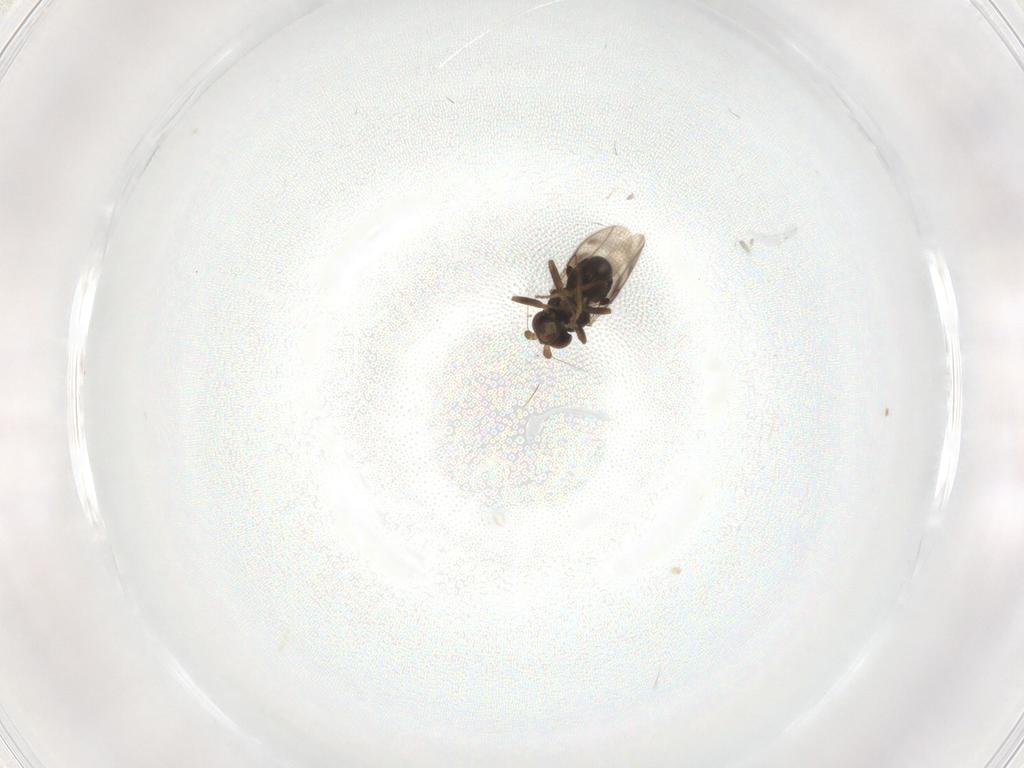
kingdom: Animalia
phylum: Arthropoda
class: Insecta
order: Diptera
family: Sphaeroceridae
